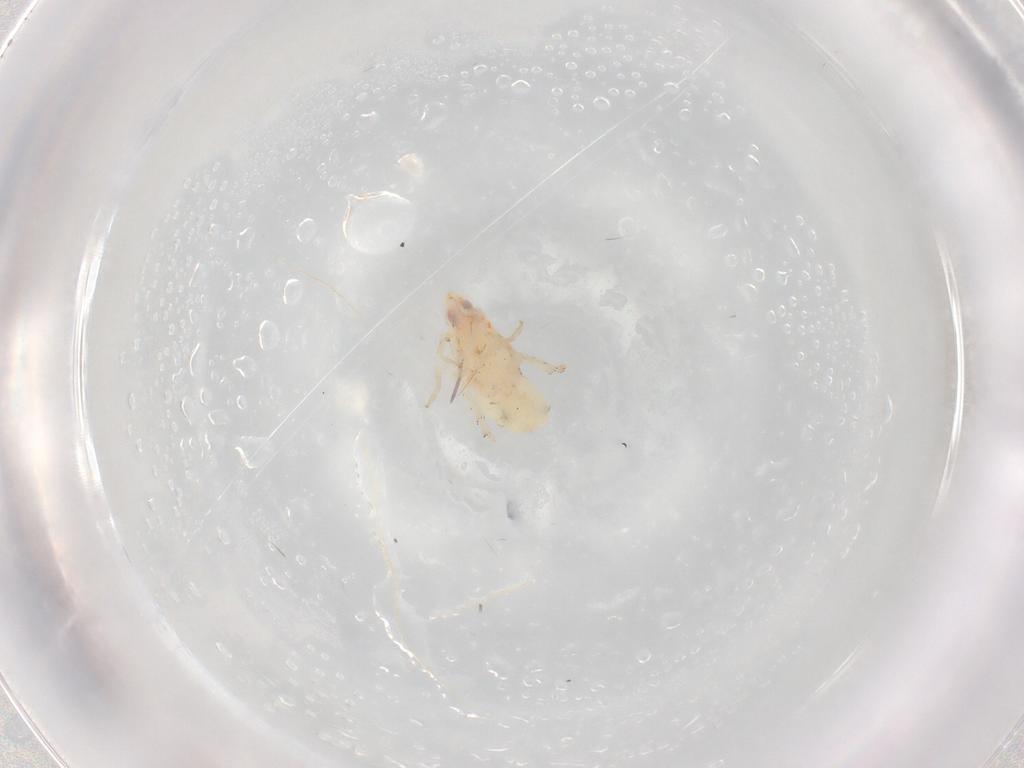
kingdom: Animalia
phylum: Arthropoda
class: Insecta
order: Hemiptera
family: Flatidae
